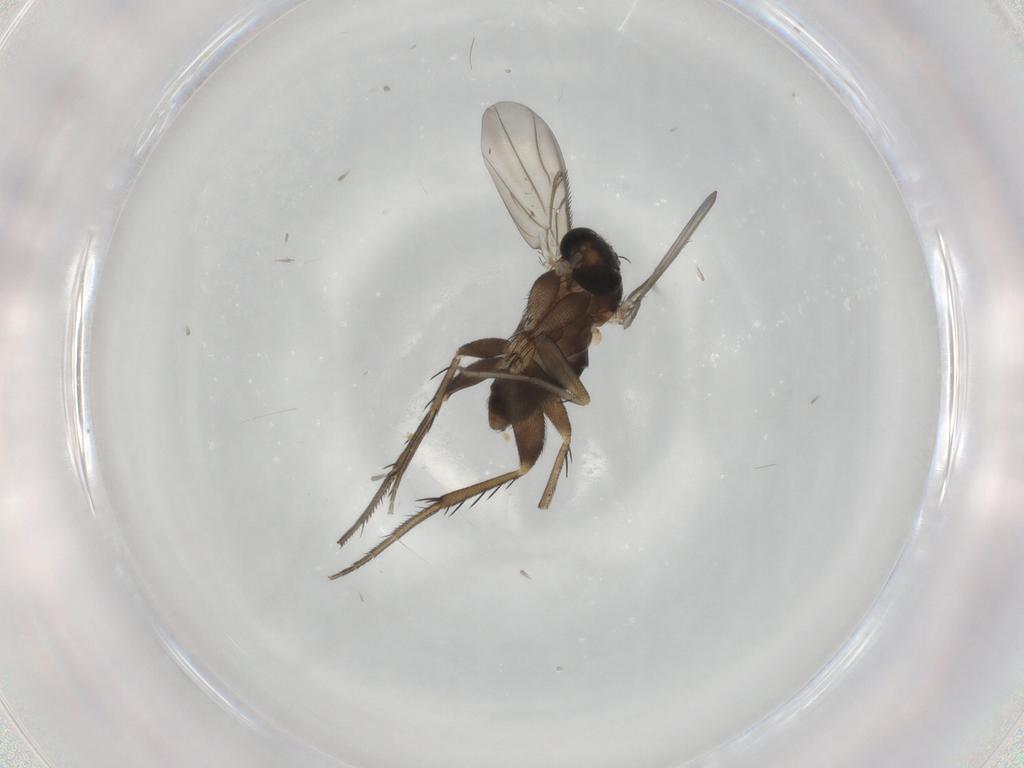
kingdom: Animalia
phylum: Arthropoda
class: Insecta
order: Diptera
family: Phoridae
